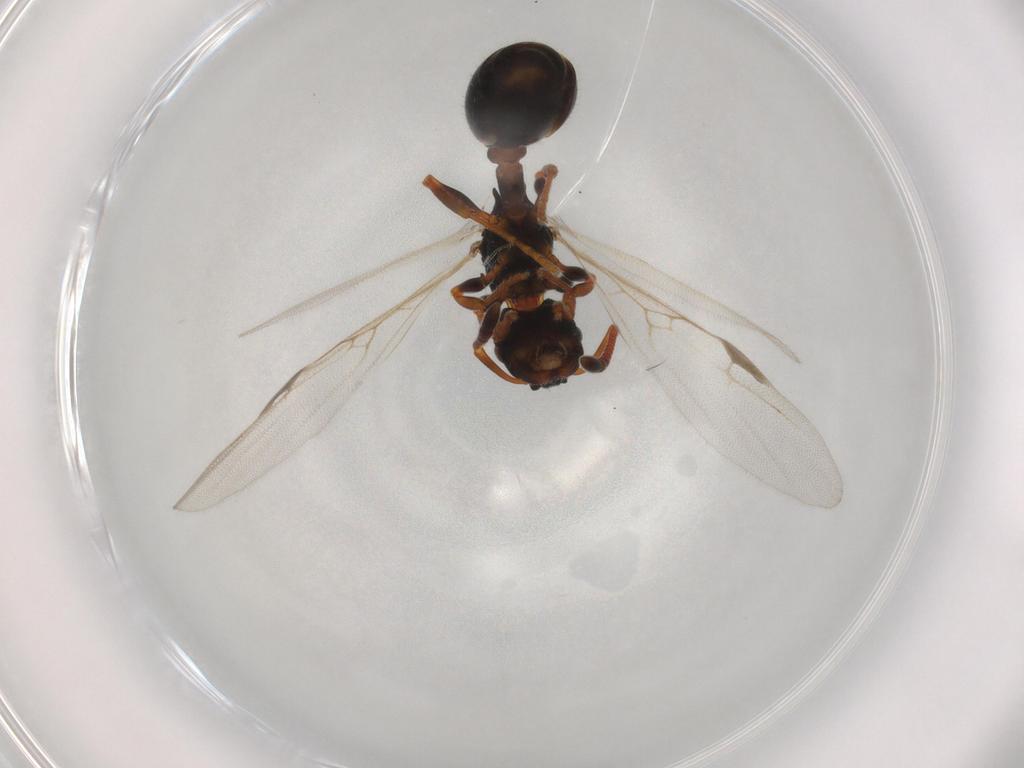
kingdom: Animalia
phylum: Arthropoda
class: Insecta
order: Hymenoptera
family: Formicidae
